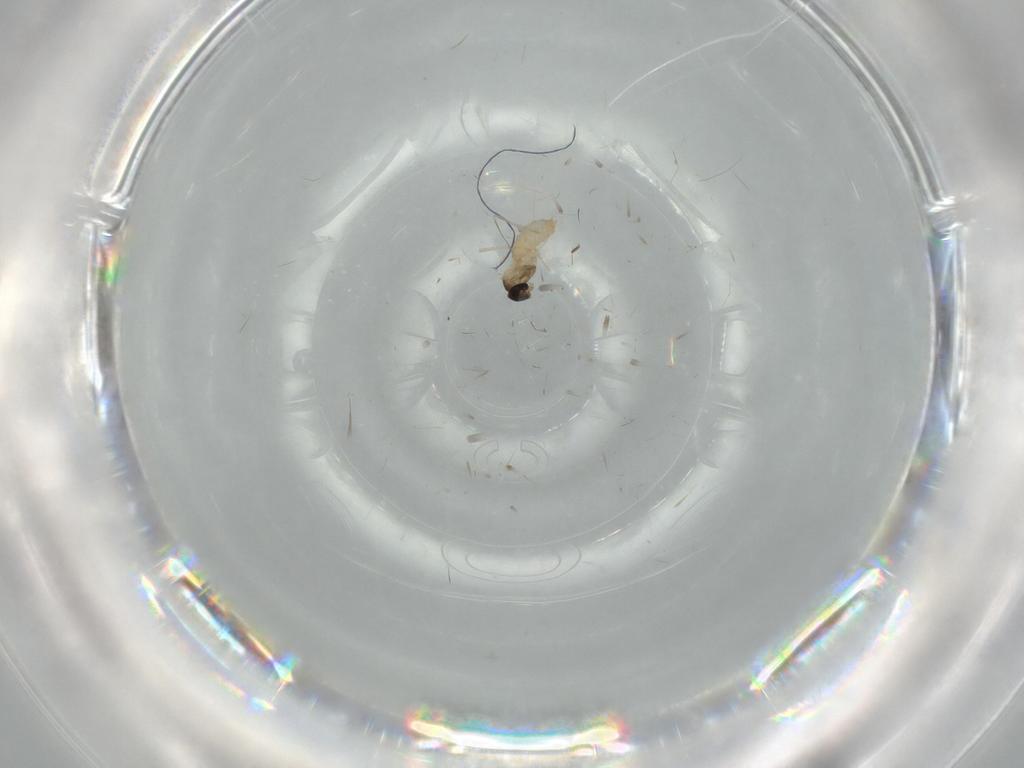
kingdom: Animalia
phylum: Arthropoda
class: Insecta
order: Diptera
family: Cecidomyiidae
